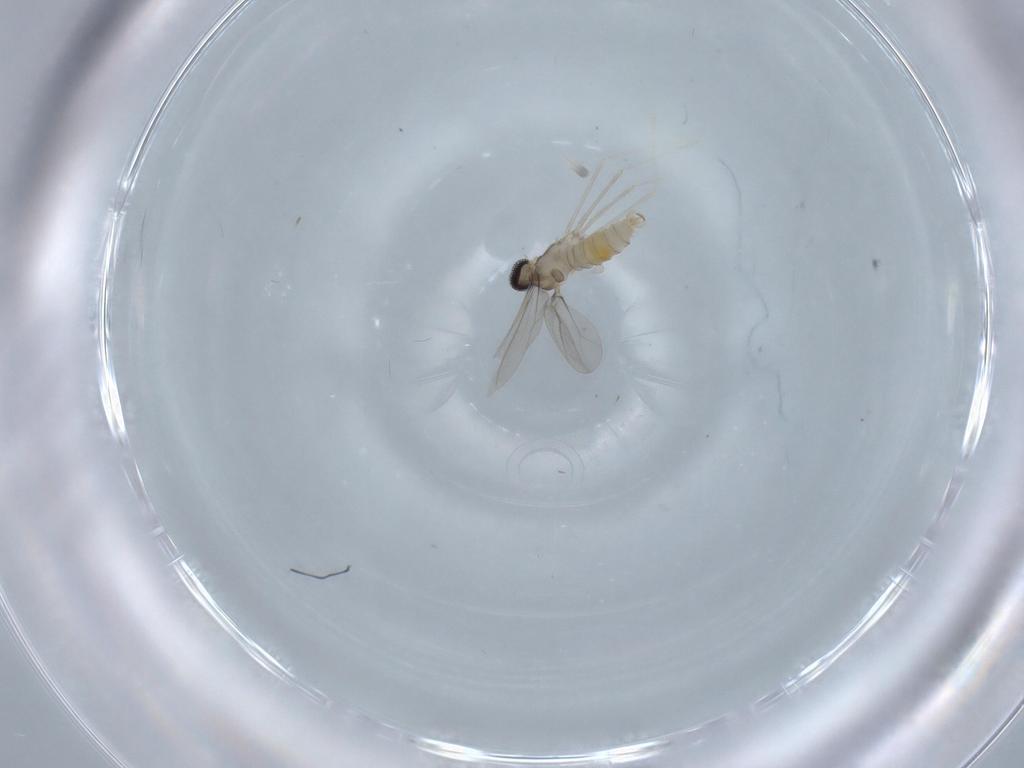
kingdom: Animalia
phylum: Arthropoda
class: Insecta
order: Diptera
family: Cecidomyiidae
